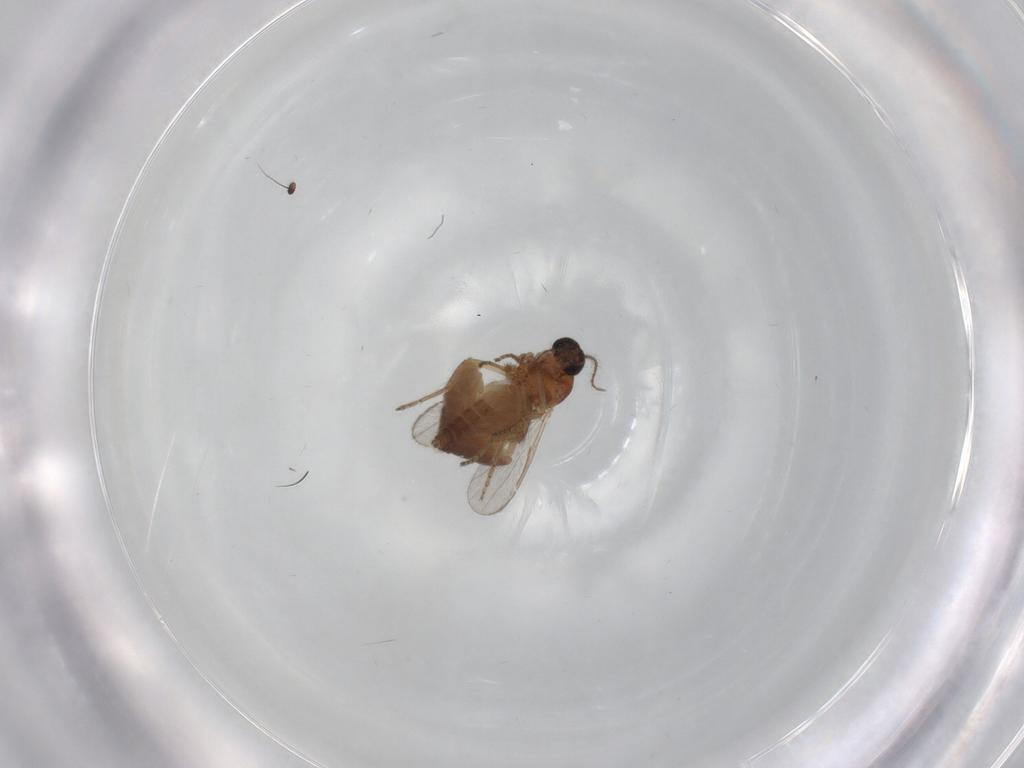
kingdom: Animalia
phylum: Arthropoda
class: Insecta
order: Diptera
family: Ceratopogonidae
